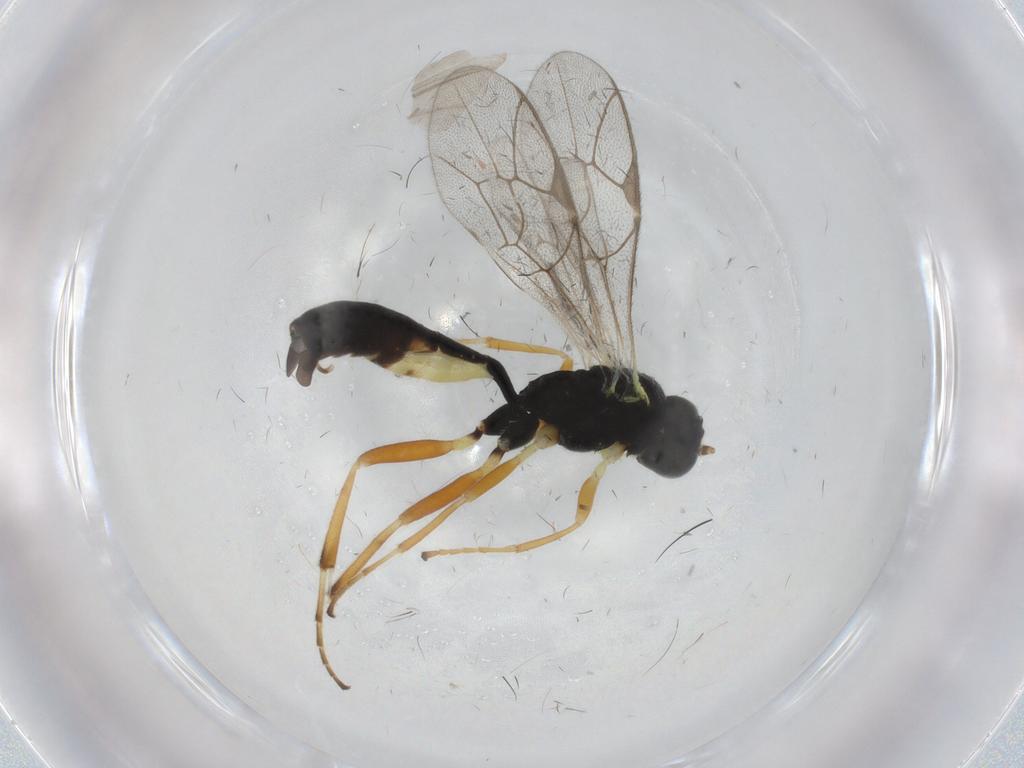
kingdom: Animalia
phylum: Arthropoda
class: Insecta
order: Hymenoptera
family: Ichneumonidae
